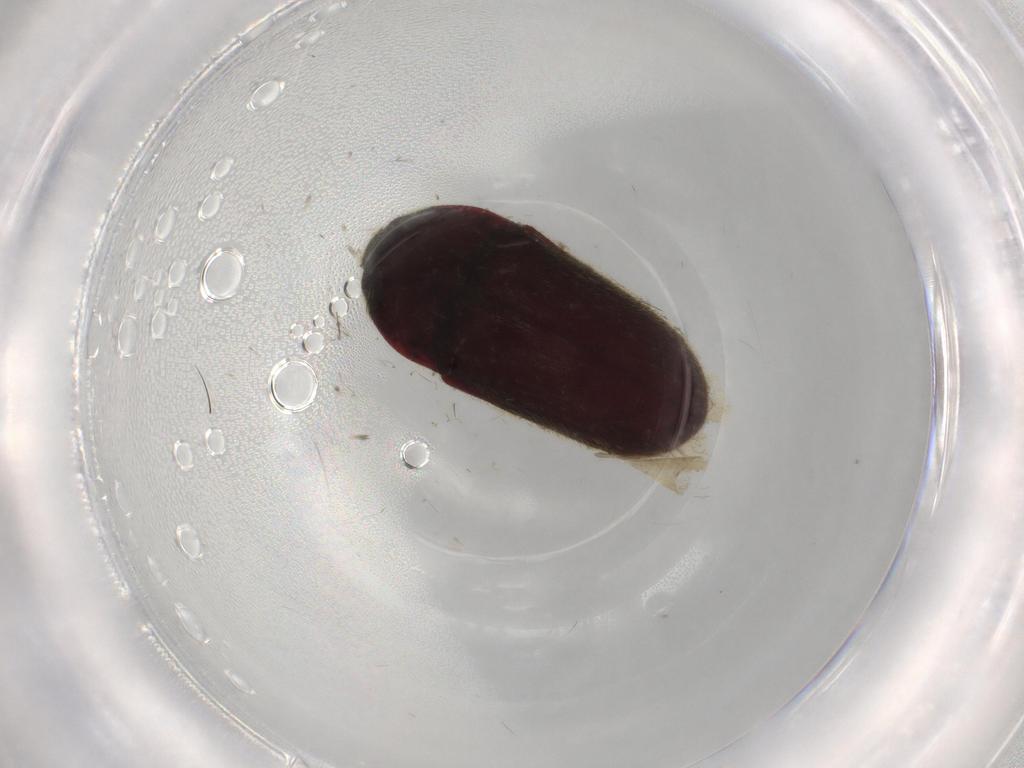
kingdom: Animalia
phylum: Arthropoda
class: Insecta
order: Coleoptera
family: Throscidae
